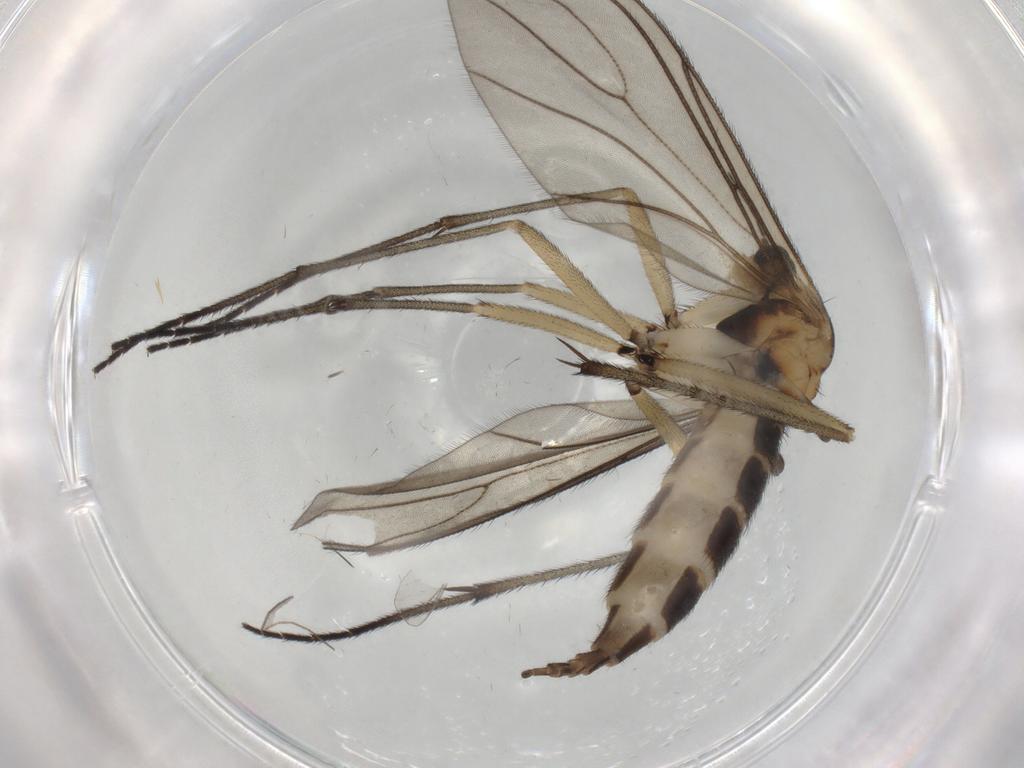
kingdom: Animalia
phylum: Arthropoda
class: Insecta
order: Diptera
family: Sciaridae
